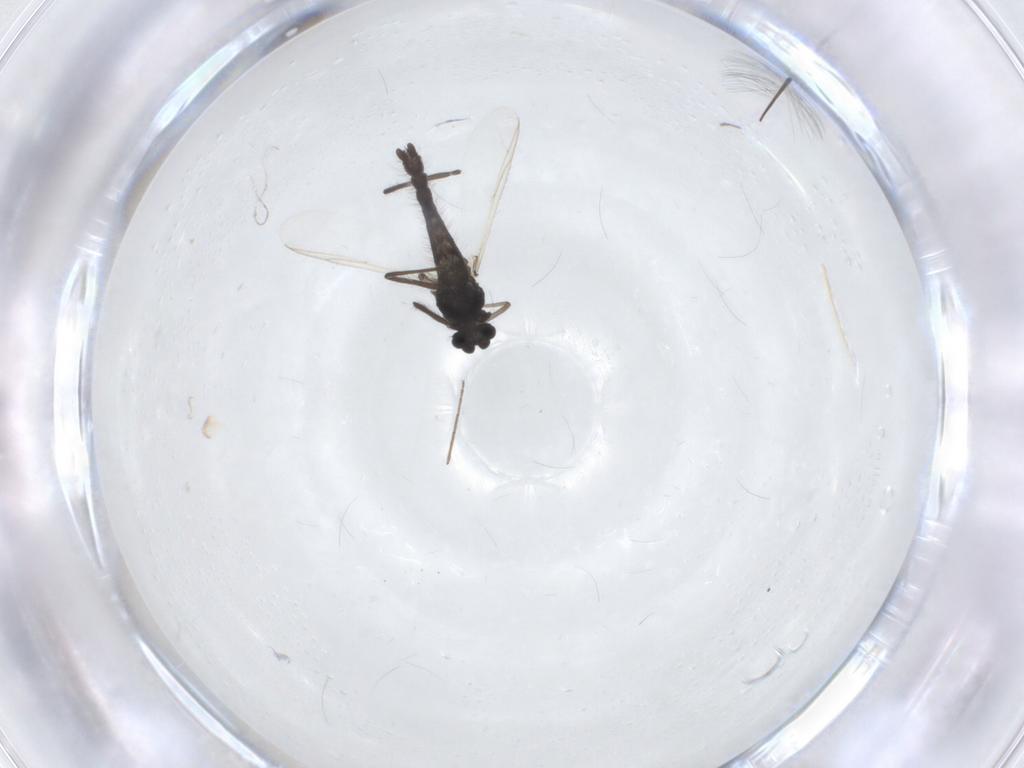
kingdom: Animalia
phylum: Arthropoda
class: Insecta
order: Diptera
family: Chironomidae
